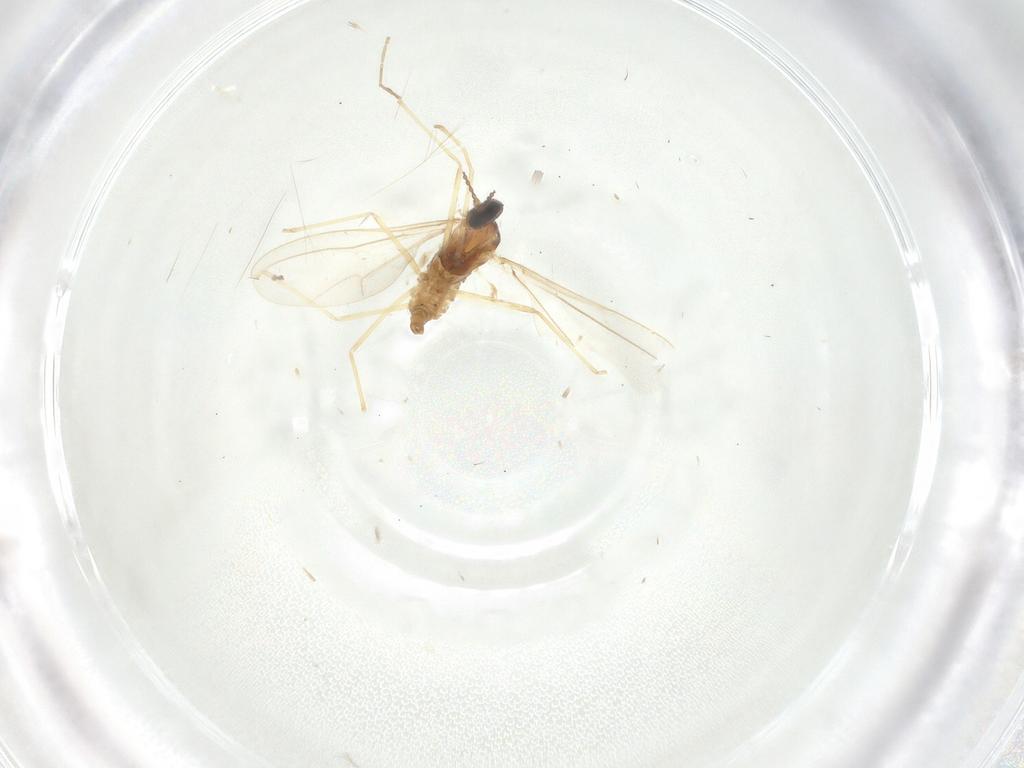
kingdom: Animalia
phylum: Arthropoda
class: Insecta
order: Diptera
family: Cecidomyiidae
